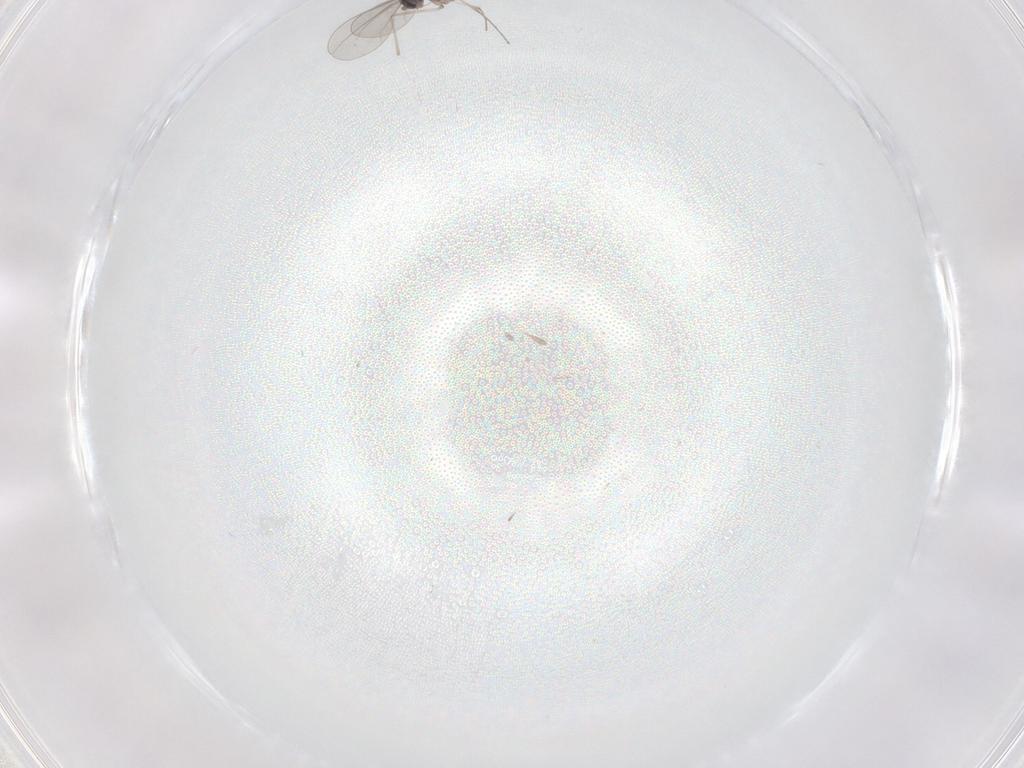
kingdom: Animalia
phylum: Arthropoda
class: Insecta
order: Diptera
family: Cecidomyiidae
